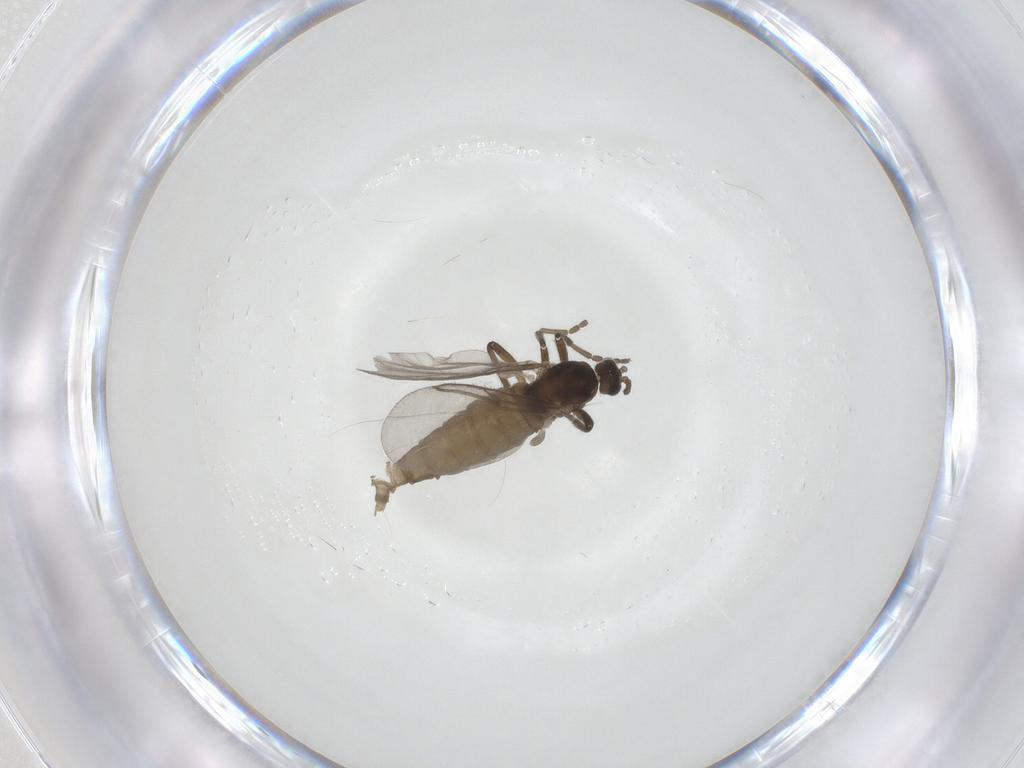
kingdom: Animalia
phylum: Arthropoda
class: Insecta
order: Diptera
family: Cecidomyiidae
